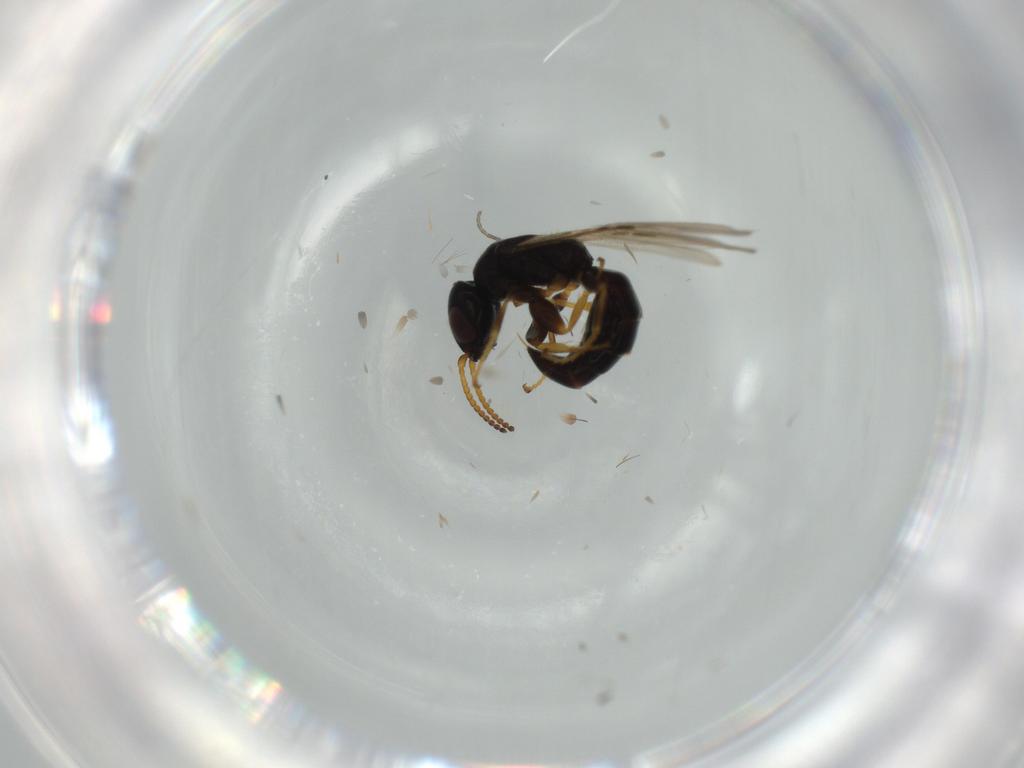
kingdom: Animalia
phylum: Arthropoda
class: Insecta
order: Hymenoptera
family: Bethylidae
